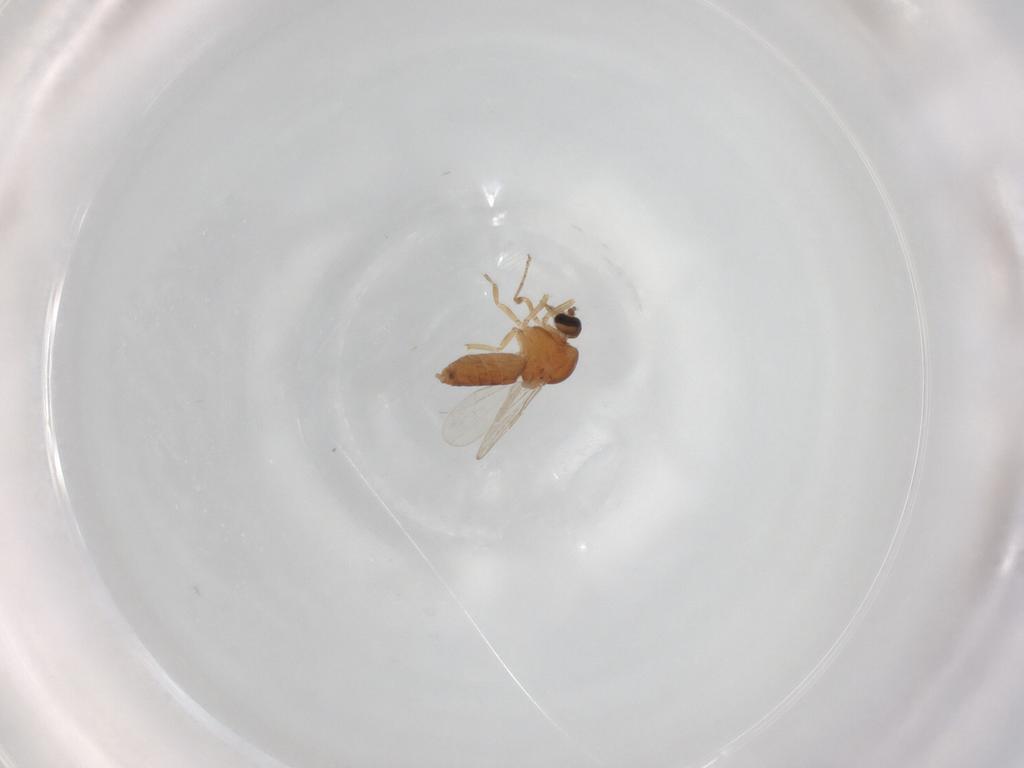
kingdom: Animalia
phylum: Arthropoda
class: Insecta
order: Diptera
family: Ceratopogonidae
